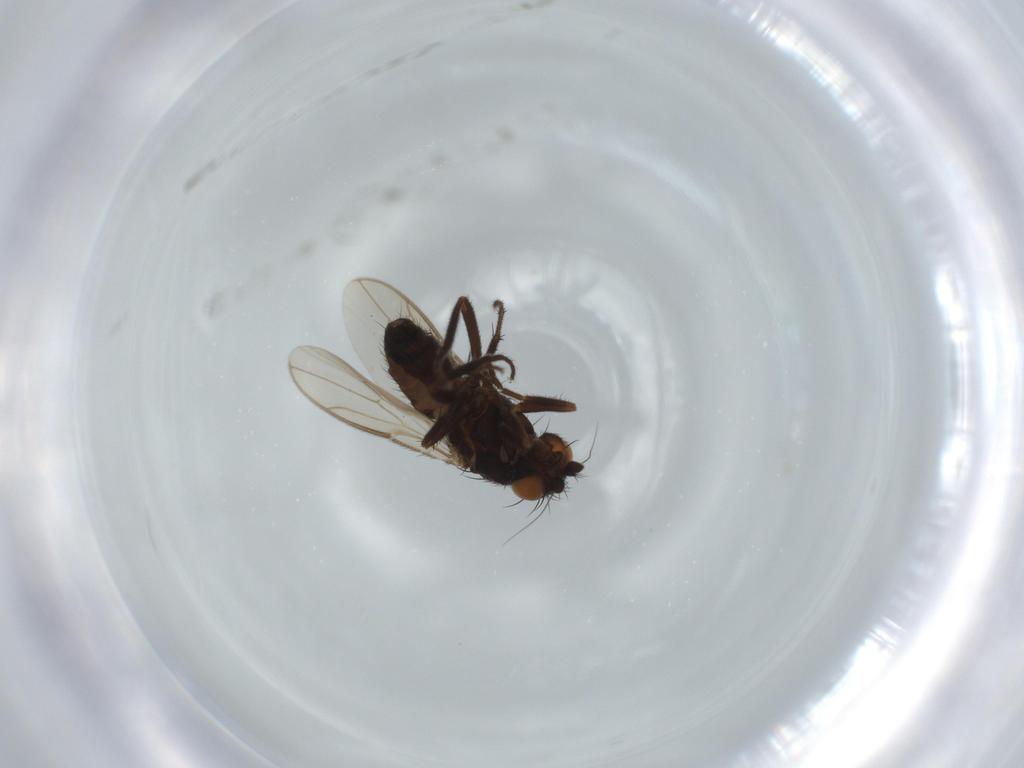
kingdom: Animalia
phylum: Arthropoda
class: Insecta
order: Diptera
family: Sphaeroceridae
